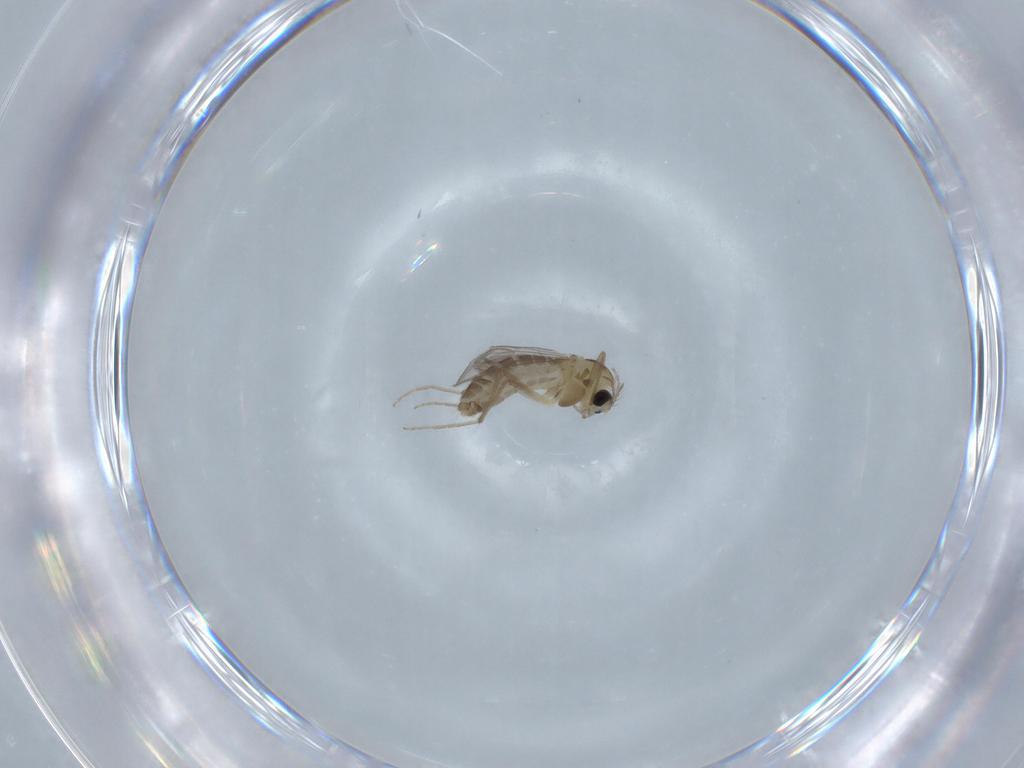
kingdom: Animalia
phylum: Arthropoda
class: Insecta
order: Diptera
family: Chironomidae
